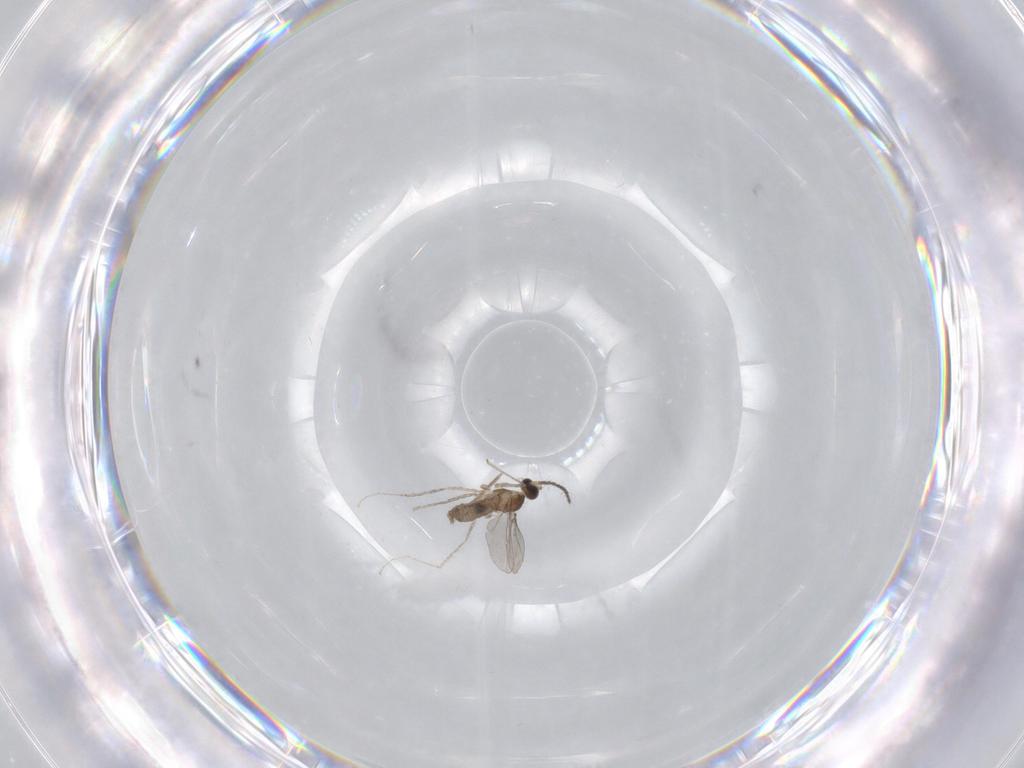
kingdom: Animalia
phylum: Arthropoda
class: Insecta
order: Diptera
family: Chironomidae
